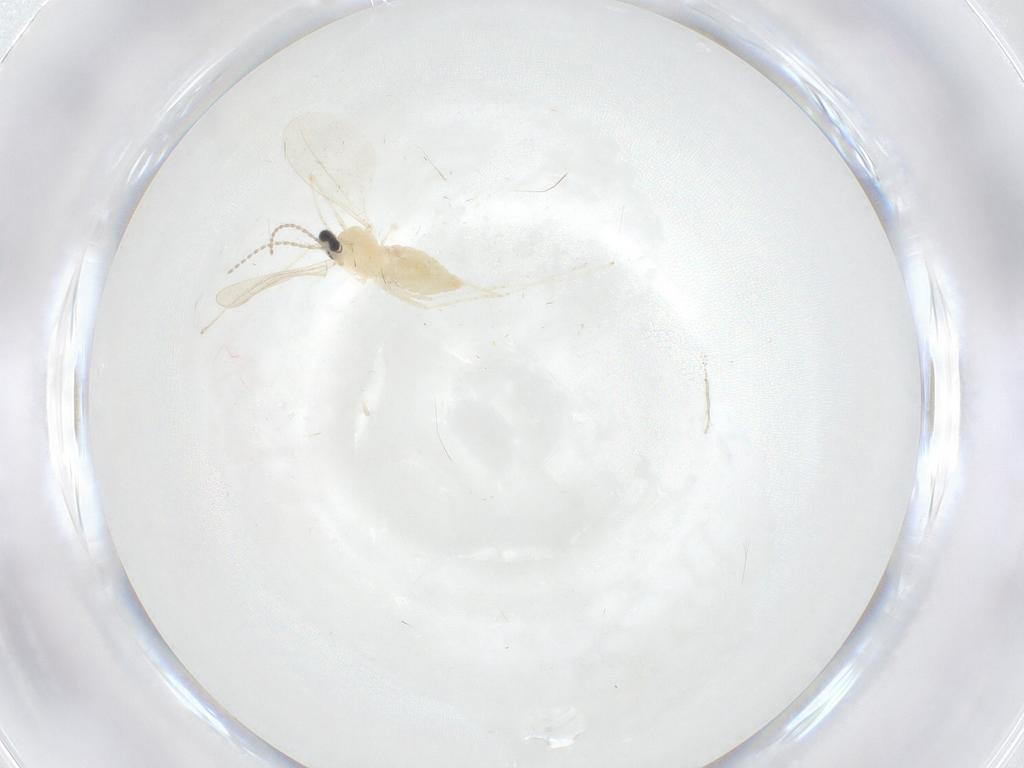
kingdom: Animalia
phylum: Arthropoda
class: Insecta
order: Diptera
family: Cecidomyiidae
